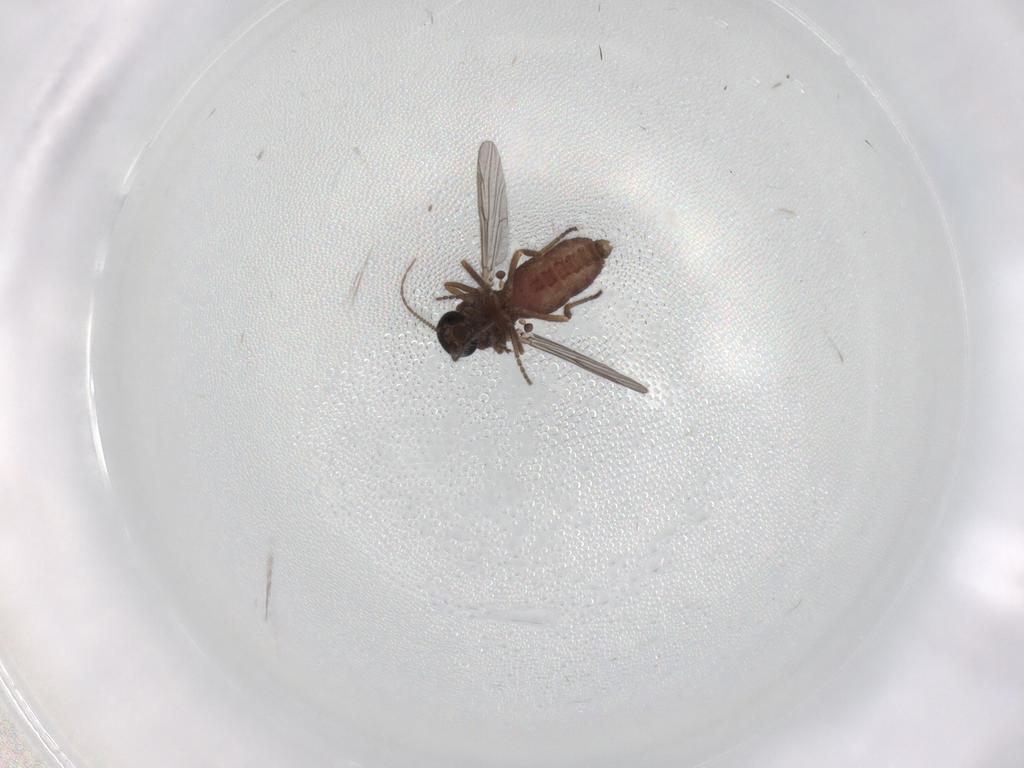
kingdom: Animalia
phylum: Arthropoda
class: Insecta
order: Diptera
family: Ceratopogonidae
